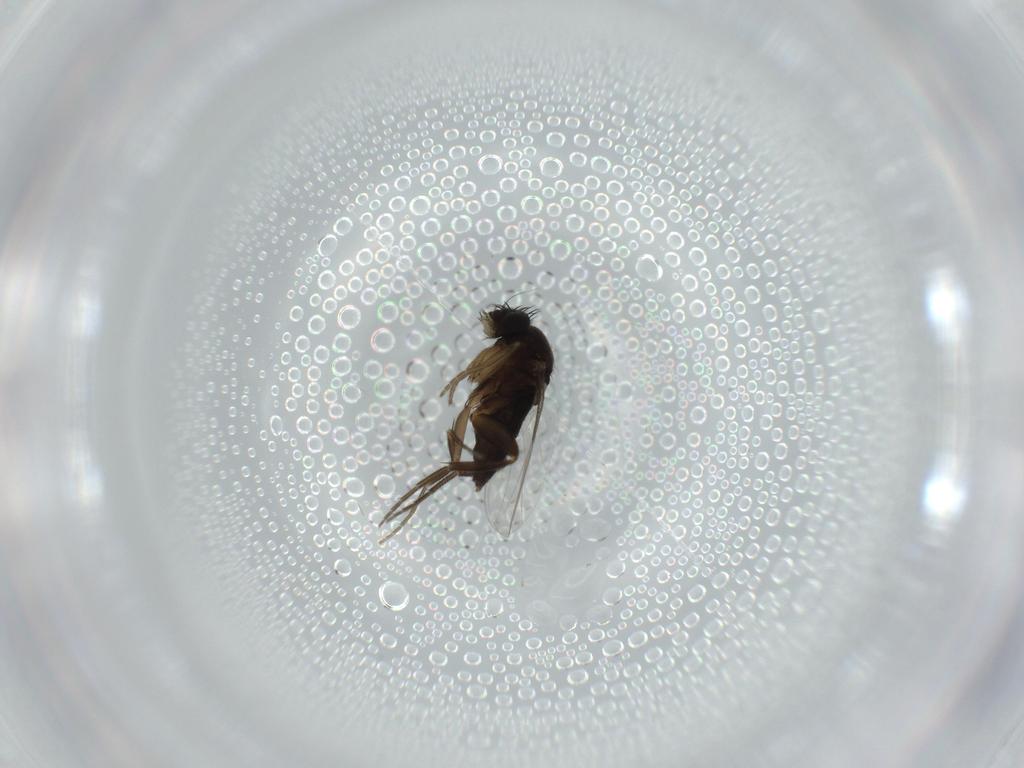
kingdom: Animalia
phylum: Arthropoda
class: Insecta
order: Diptera
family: Phoridae
